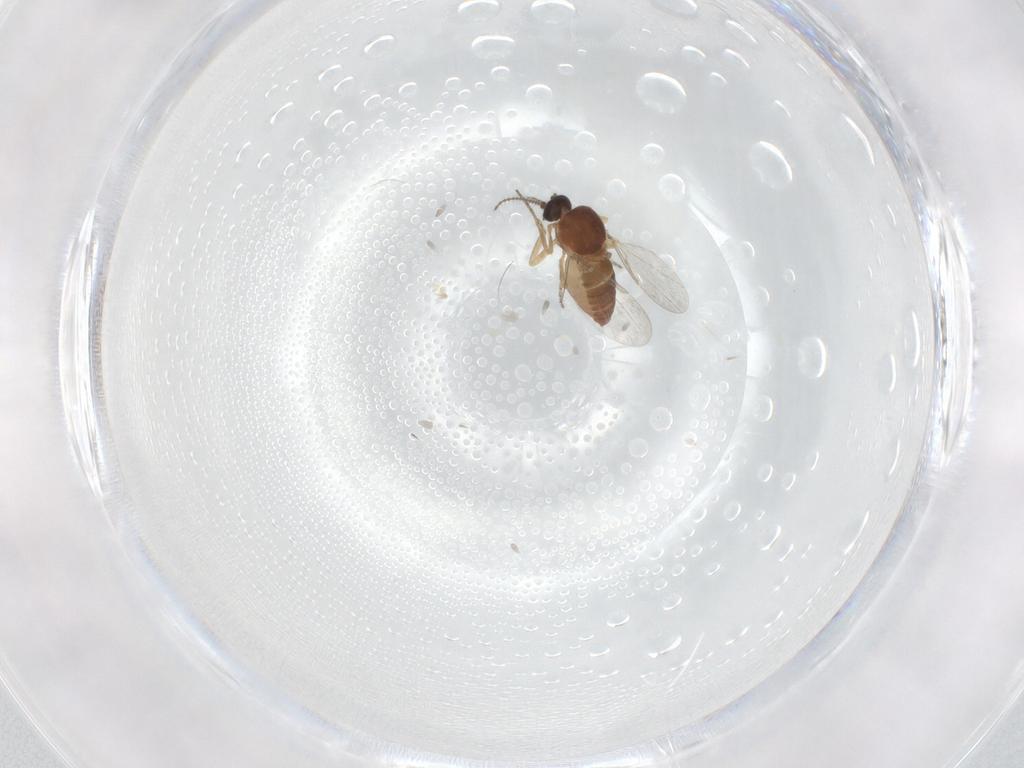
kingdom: Animalia
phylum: Arthropoda
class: Insecta
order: Diptera
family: Ceratopogonidae
